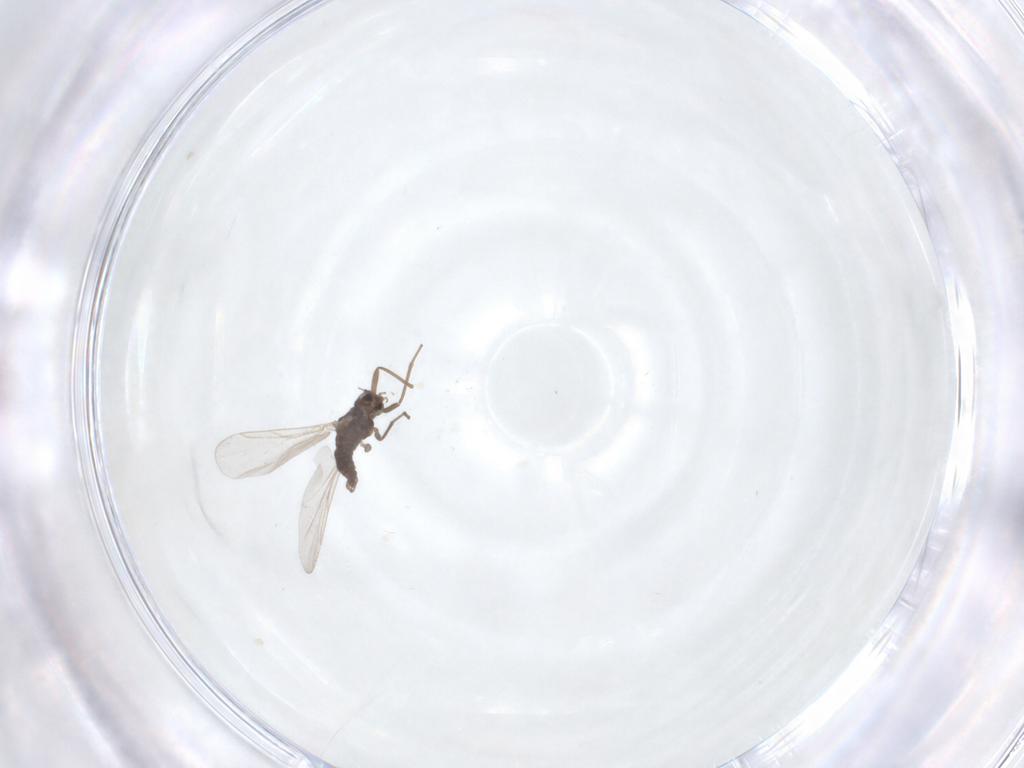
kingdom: Animalia
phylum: Arthropoda
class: Insecta
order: Diptera
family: Cecidomyiidae
